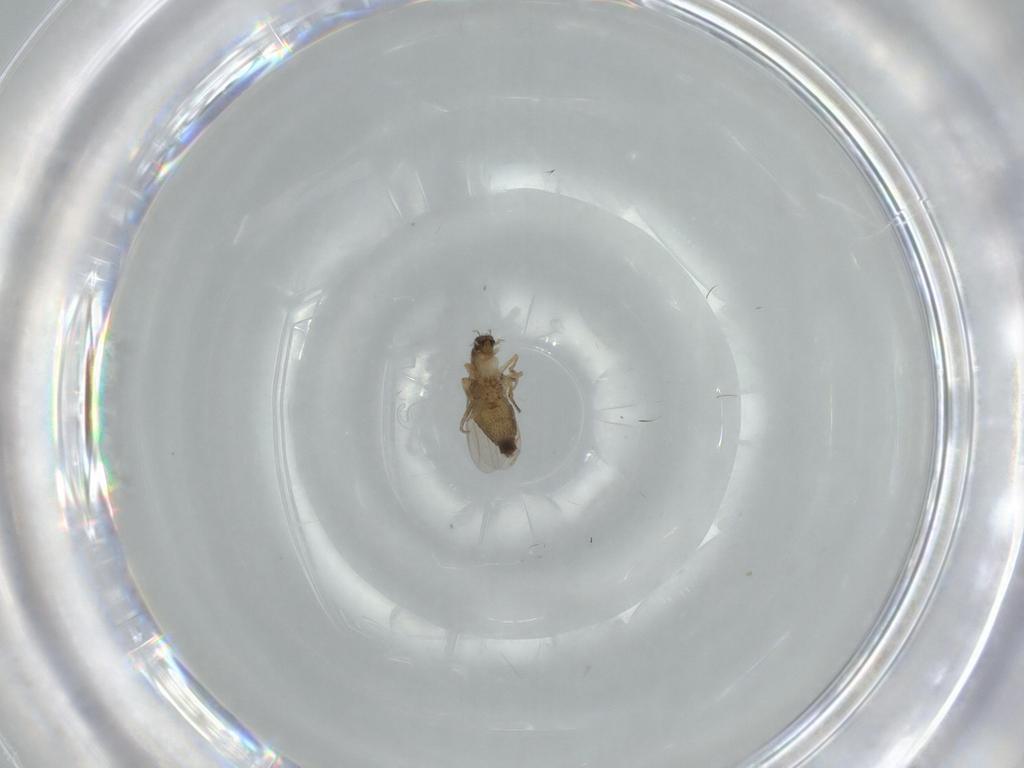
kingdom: Animalia
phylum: Arthropoda
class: Insecta
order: Diptera
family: Phoridae
